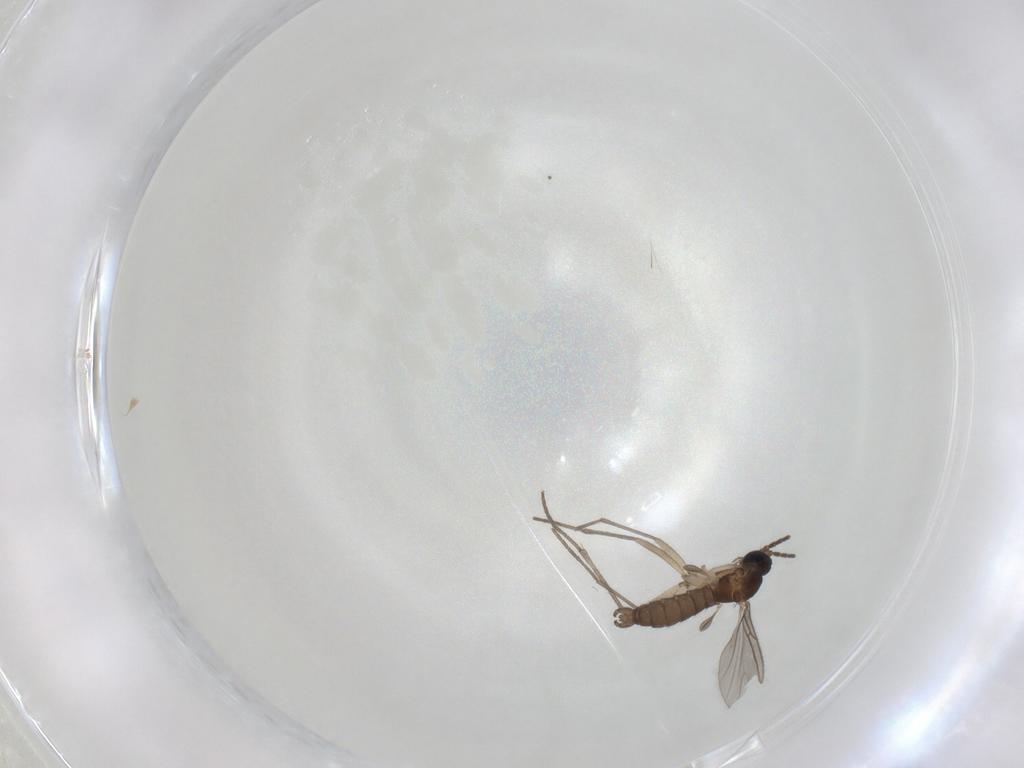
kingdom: Animalia
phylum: Arthropoda
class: Insecta
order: Diptera
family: Sciaridae
